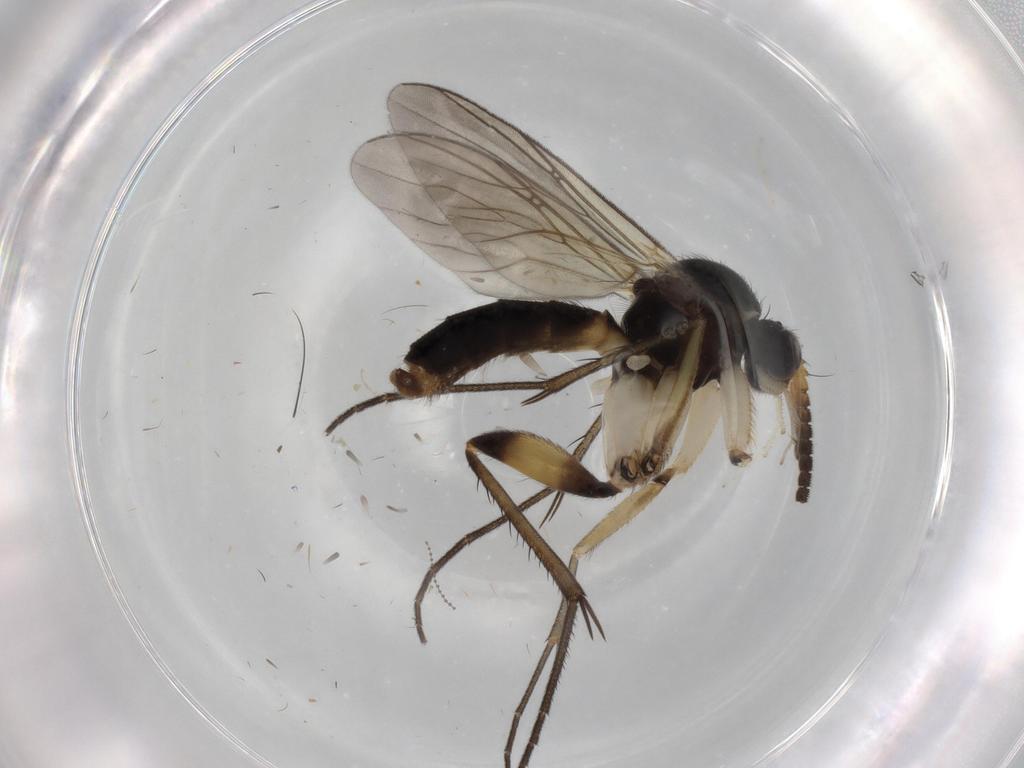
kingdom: Animalia
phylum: Arthropoda
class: Insecta
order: Diptera
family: Mycetophilidae
